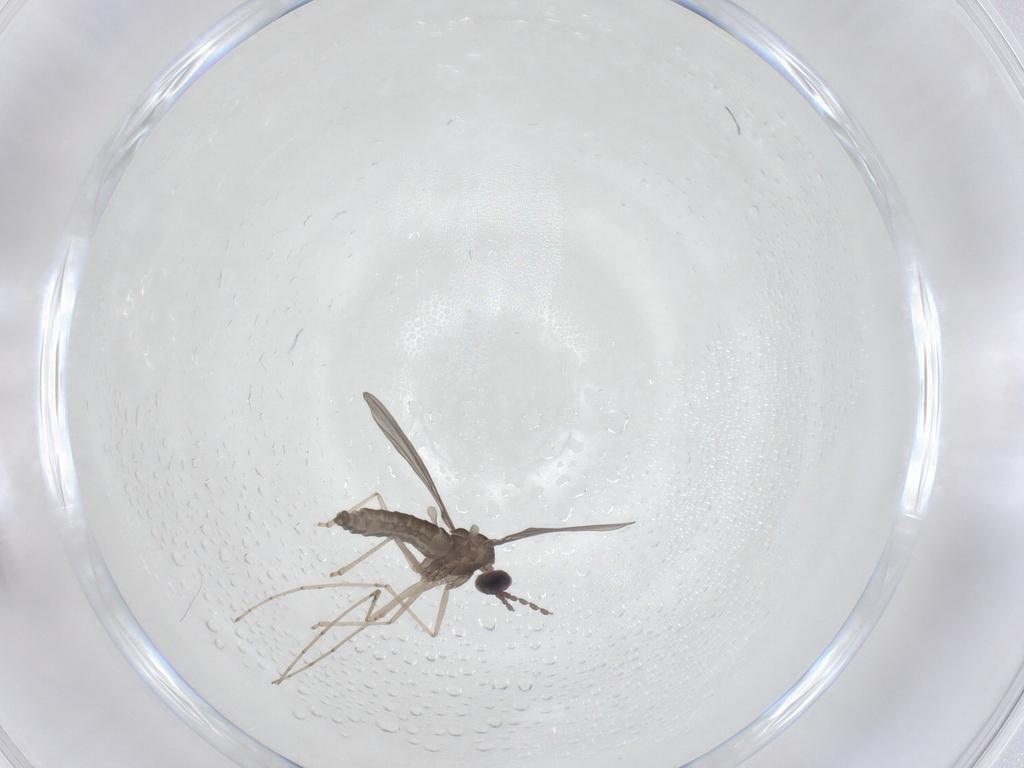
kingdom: Animalia
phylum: Arthropoda
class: Insecta
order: Diptera
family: Cecidomyiidae
